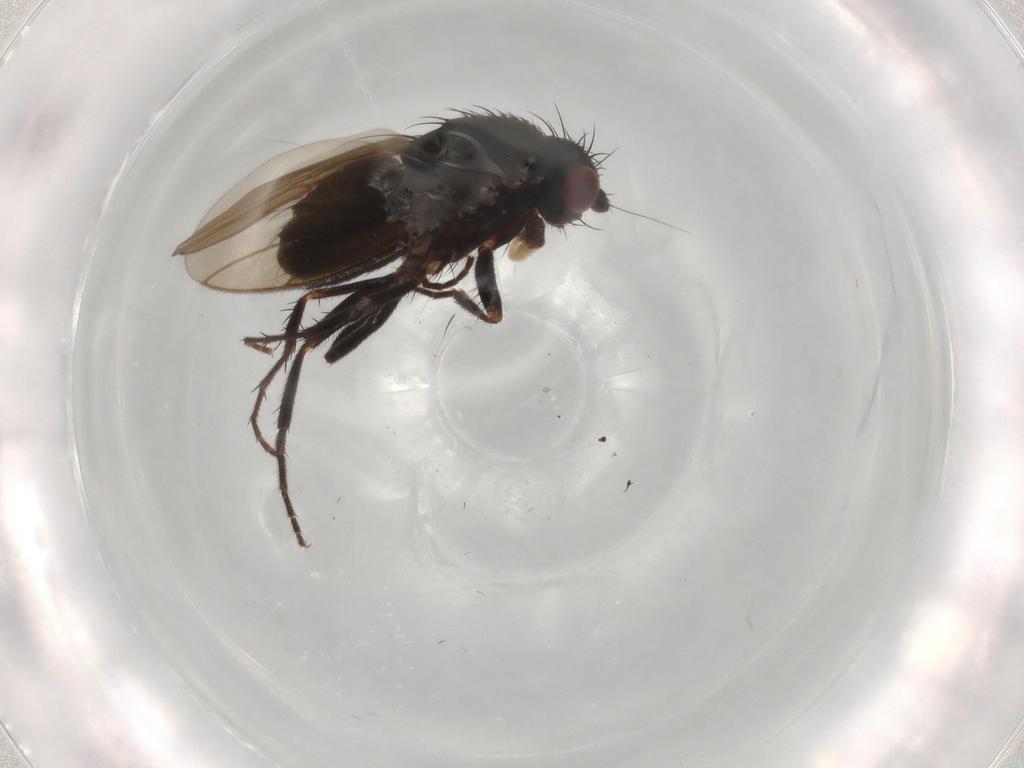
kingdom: Animalia
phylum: Arthropoda
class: Insecta
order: Diptera
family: Sphaeroceridae
